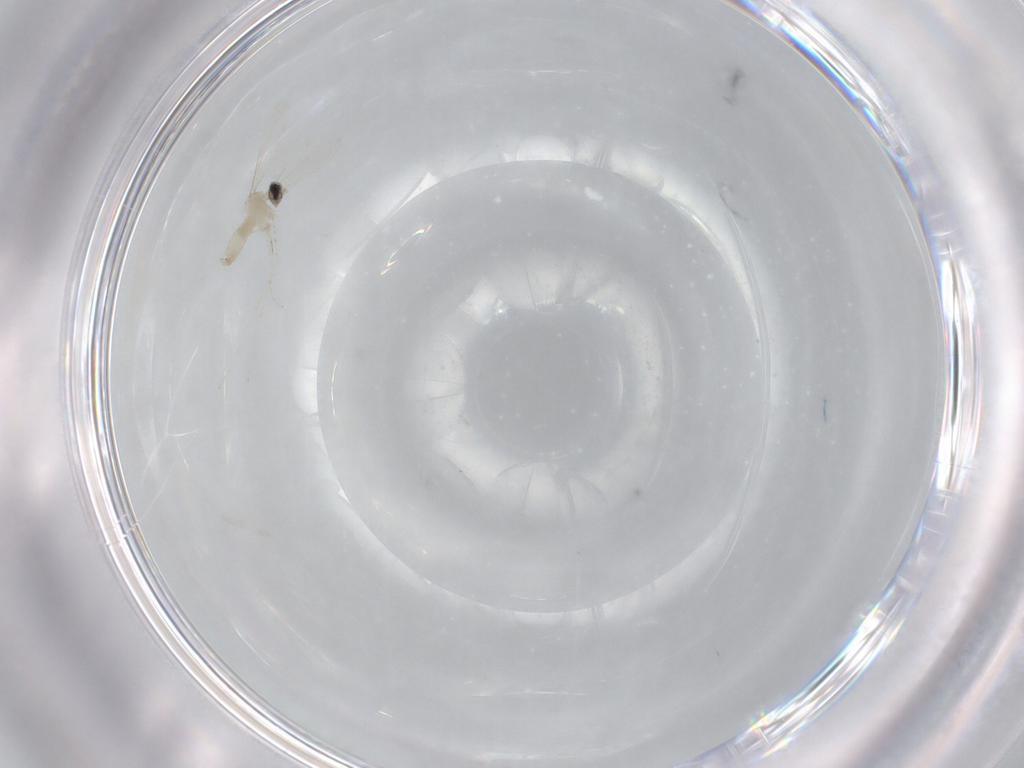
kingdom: Animalia
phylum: Arthropoda
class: Insecta
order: Diptera
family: Cecidomyiidae
